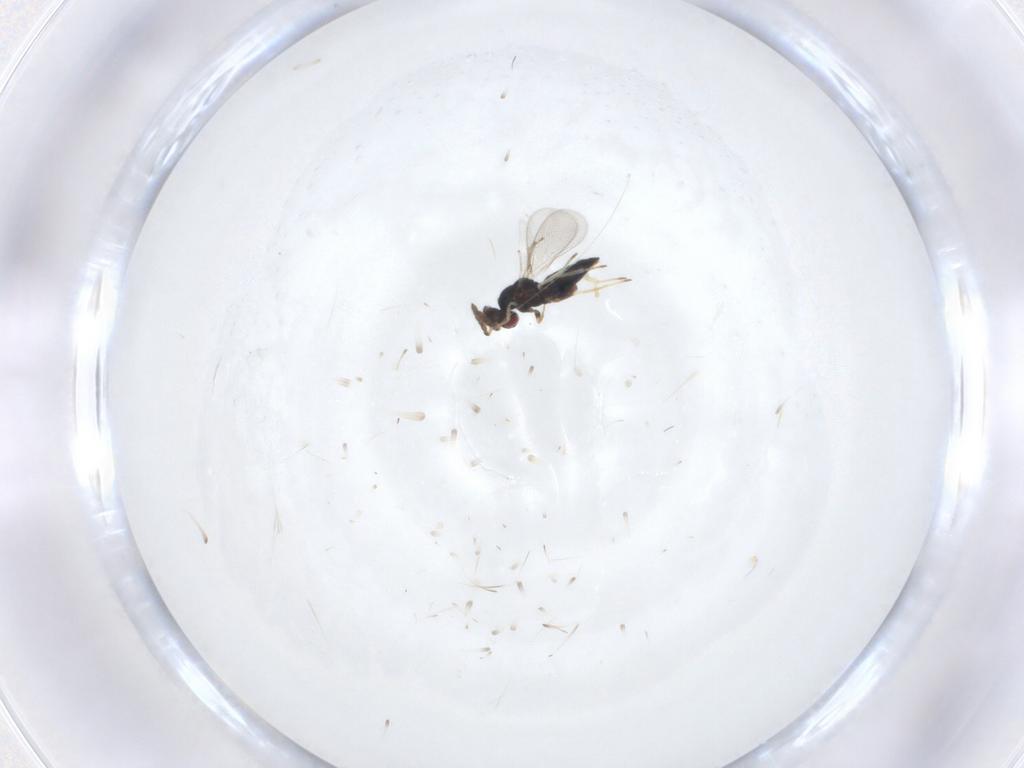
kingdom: Animalia
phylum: Arthropoda
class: Insecta
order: Hymenoptera
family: Eulophidae
